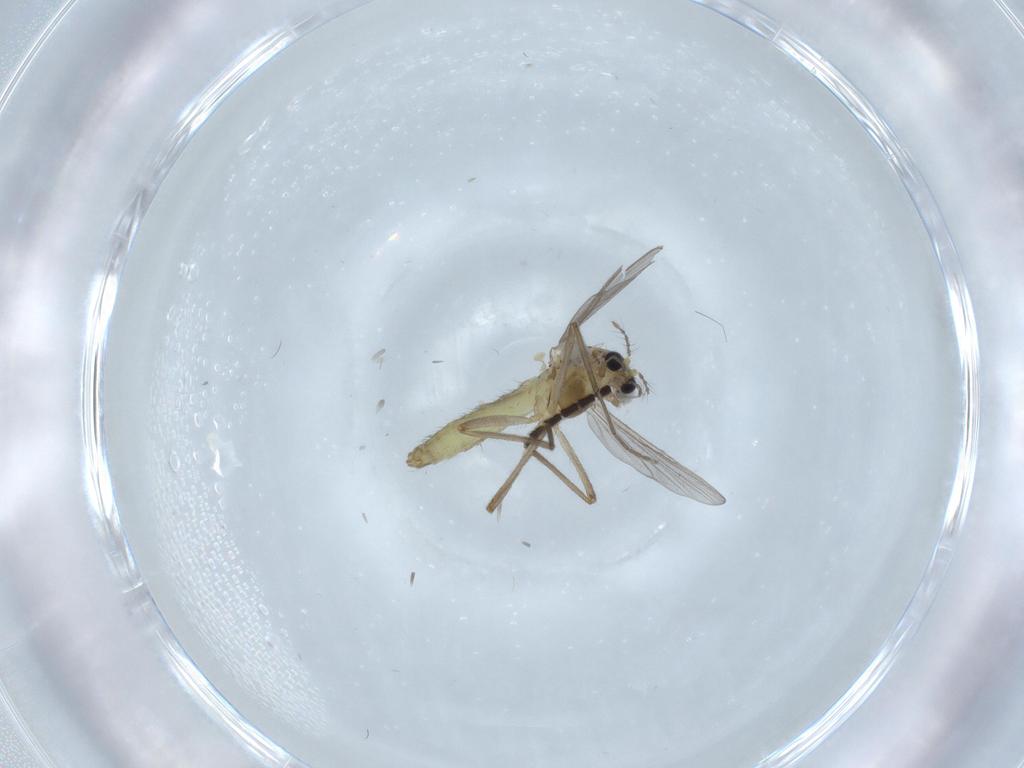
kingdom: Animalia
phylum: Arthropoda
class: Insecta
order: Diptera
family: Chironomidae
